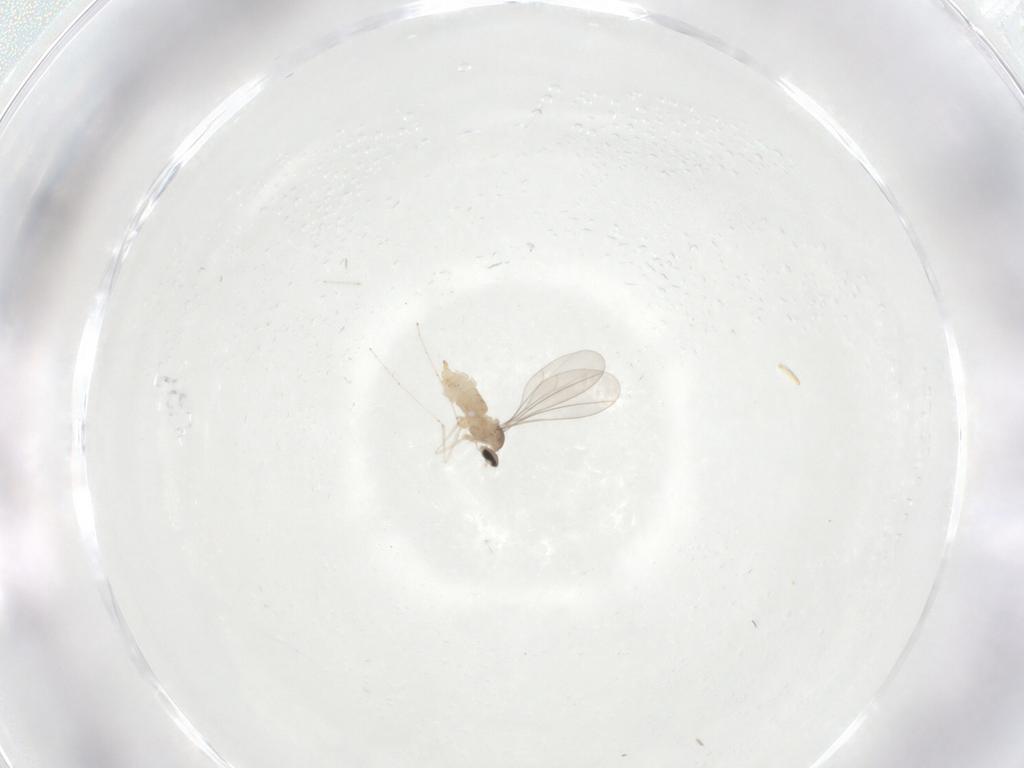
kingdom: Animalia
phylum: Arthropoda
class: Insecta
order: Diptera
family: Cecidomyiidae
